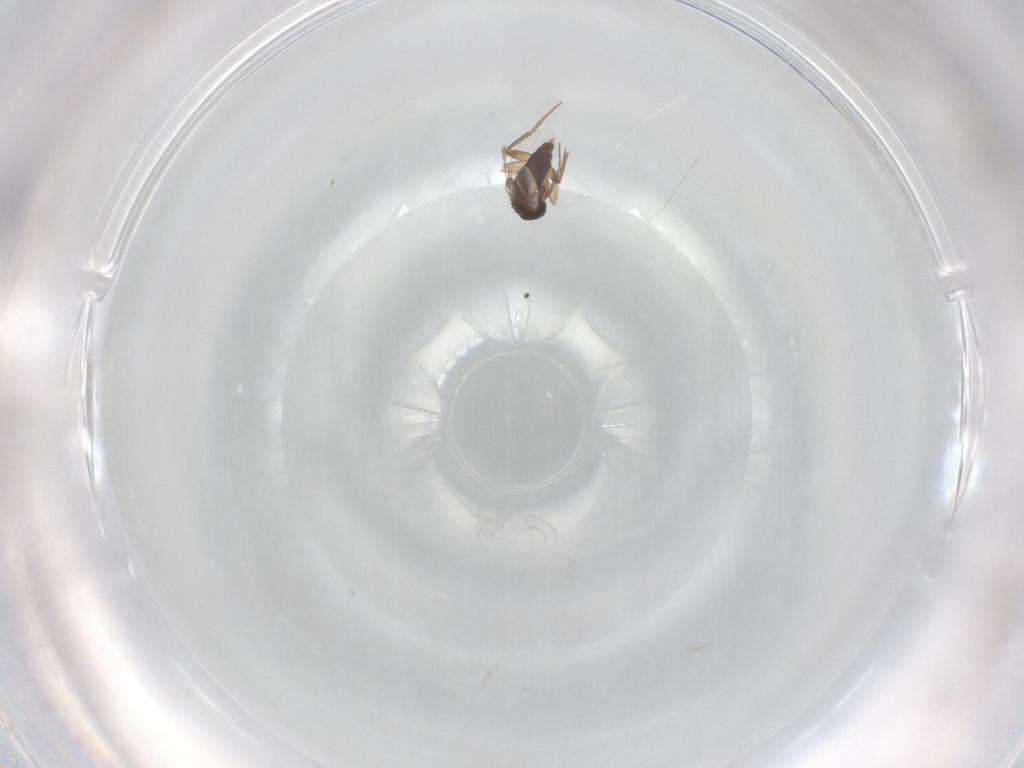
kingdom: Animalia
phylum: Arthropoda
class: Insecta
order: Diptera
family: Phoridae
